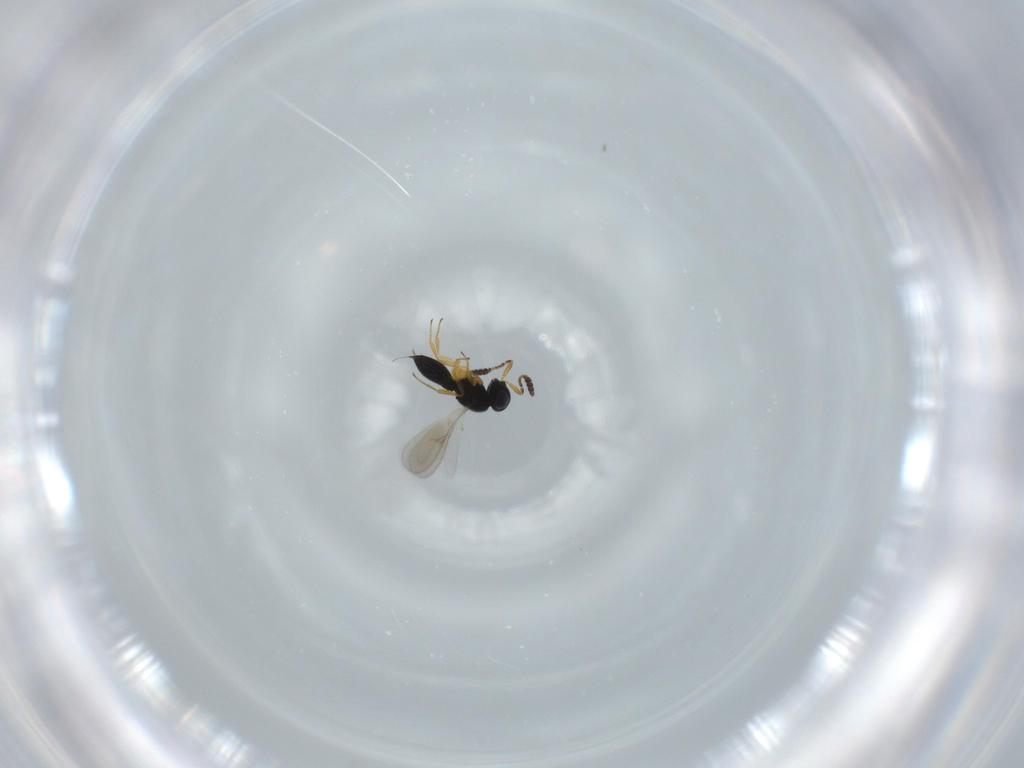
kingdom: Animalia
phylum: Arthropoda
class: Insecta
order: Hymenoptera
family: Scelionidae
